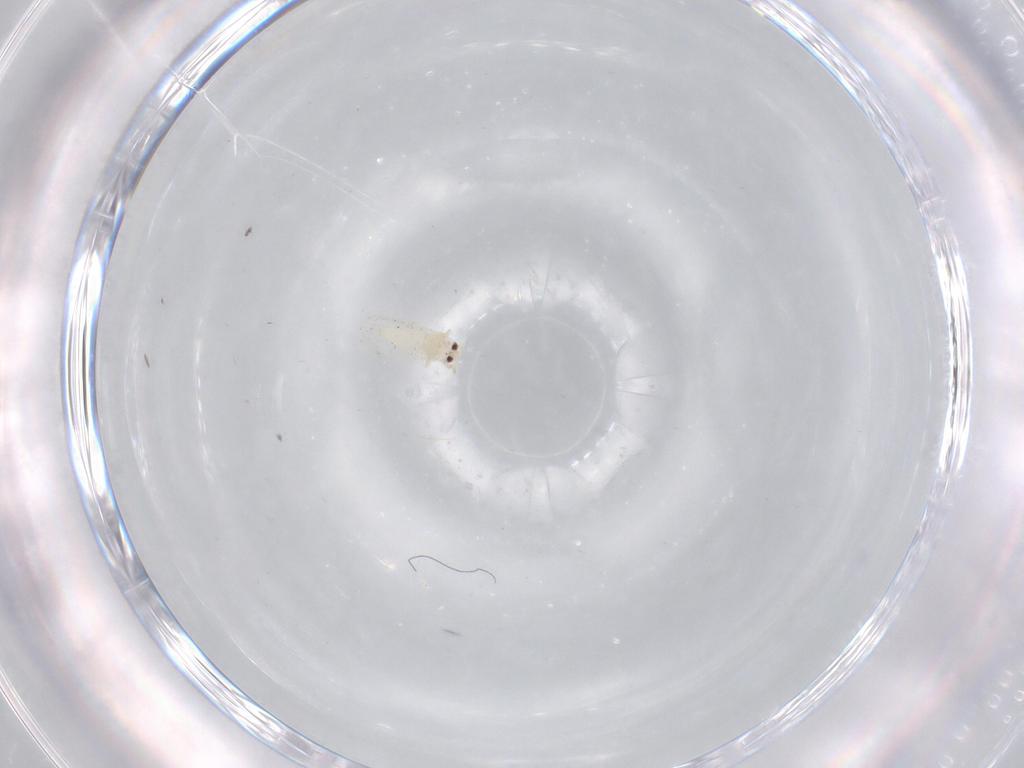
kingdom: Animalia
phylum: Arthropoda
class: Insecta
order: Hemiptera
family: Aleyrodidae
